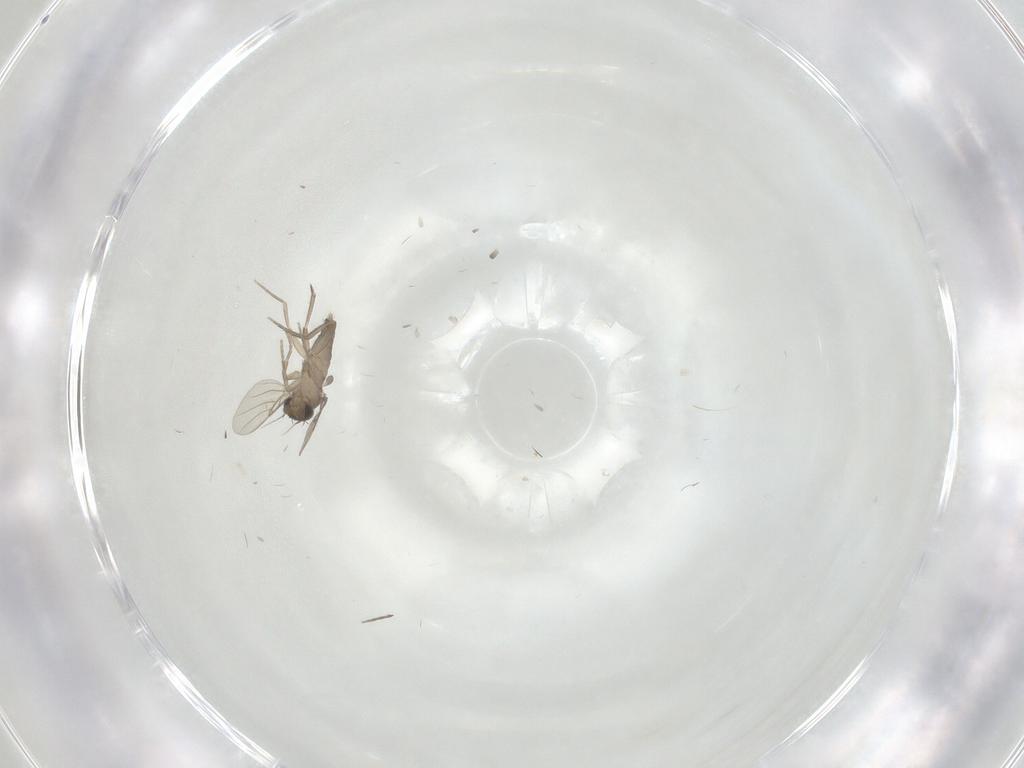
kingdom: Animalia
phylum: Arthropoda
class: Insecta
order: Diptera
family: Phoridae
